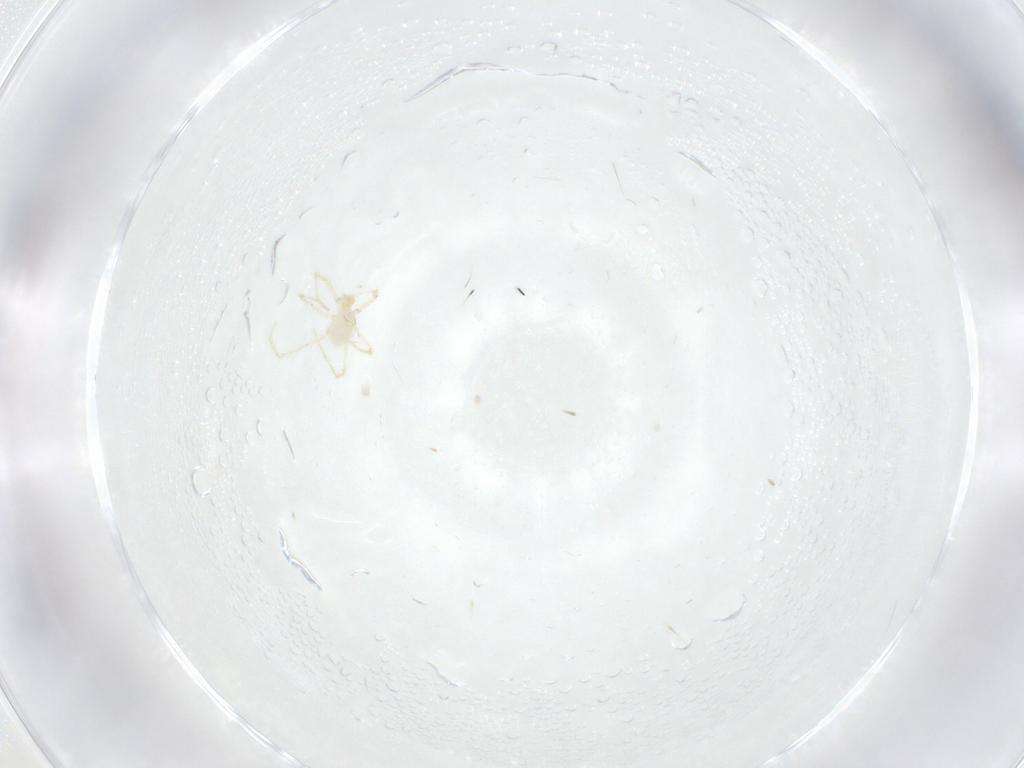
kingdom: Animalia
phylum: Arthropoda
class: Arachnida
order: Trombidiformes
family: Erythraeidae
